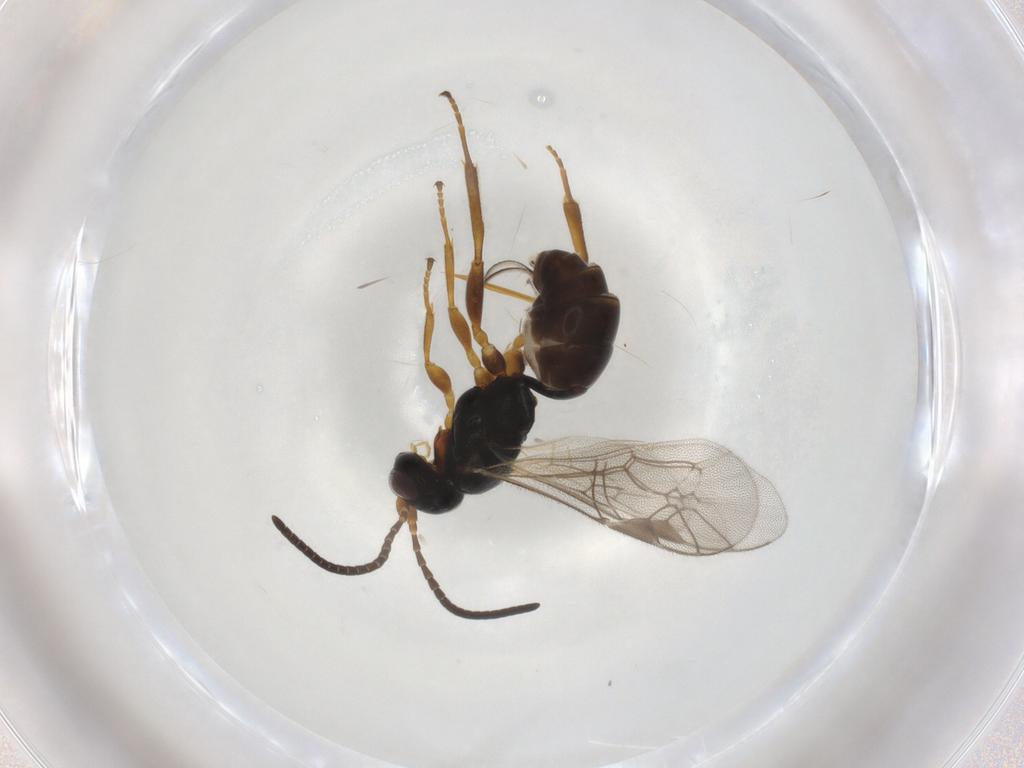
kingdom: Animalia
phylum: Arthropoda
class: Insecta
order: Hymenoptera
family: Ichneumonidae
